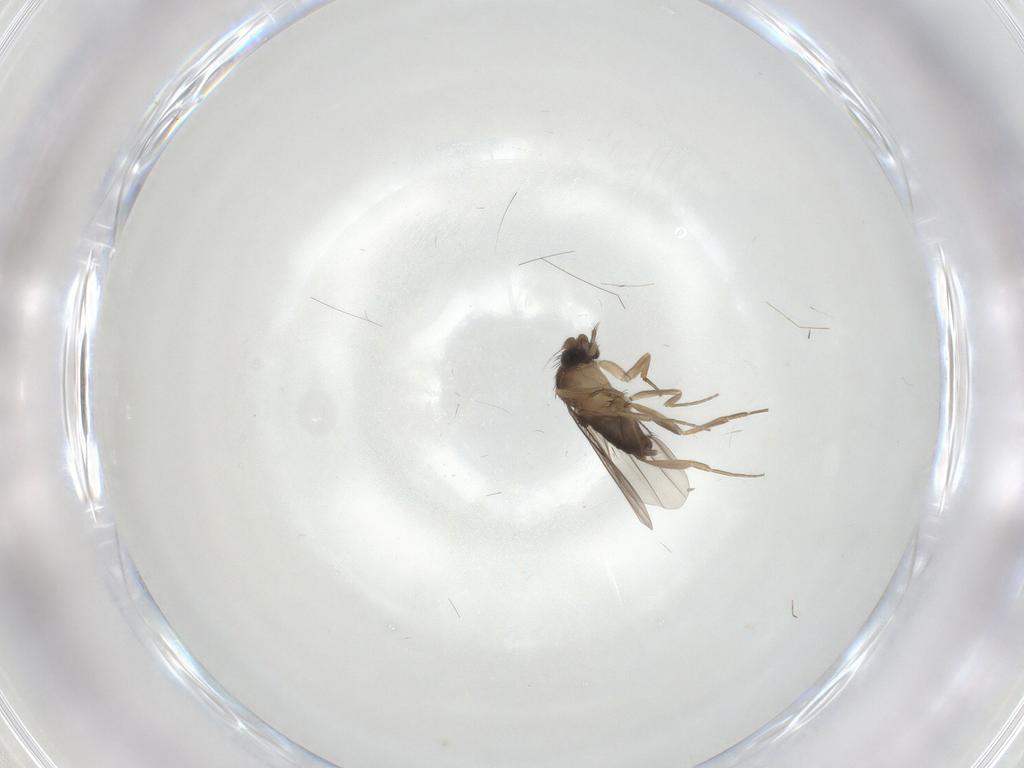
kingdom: Animalia
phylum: Arthropoda
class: Insecta
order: Diptera
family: Phoridae
